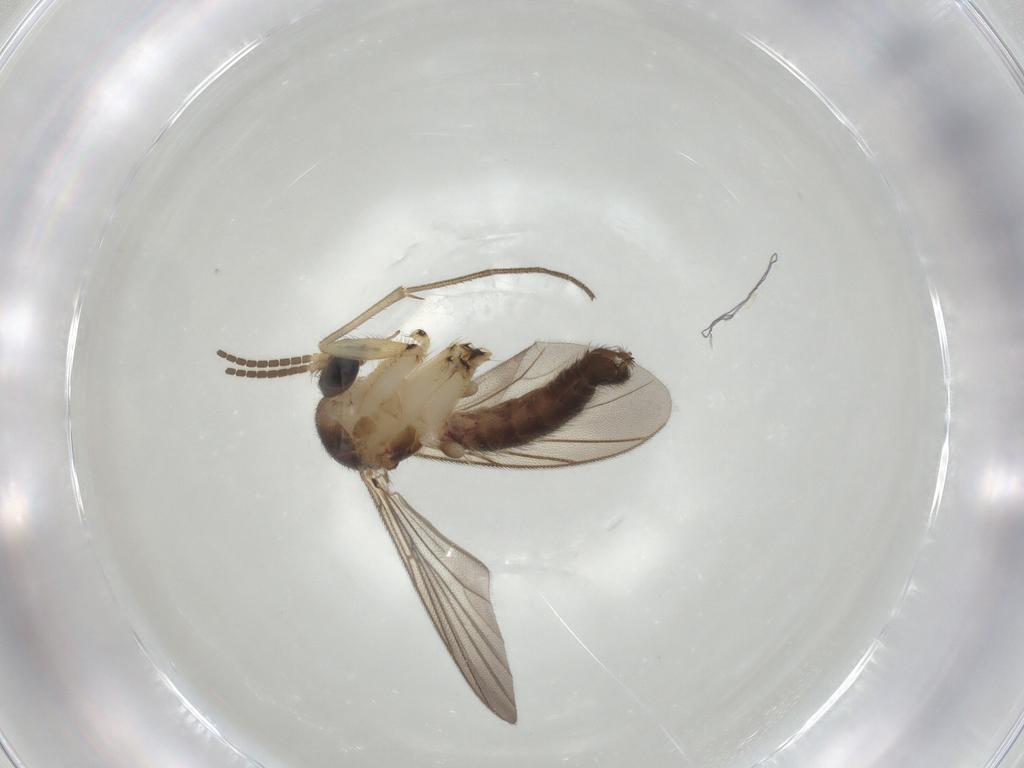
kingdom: Animalia
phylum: Arthropoda
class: Insecta
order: Diptera
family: Mycetophilidae
